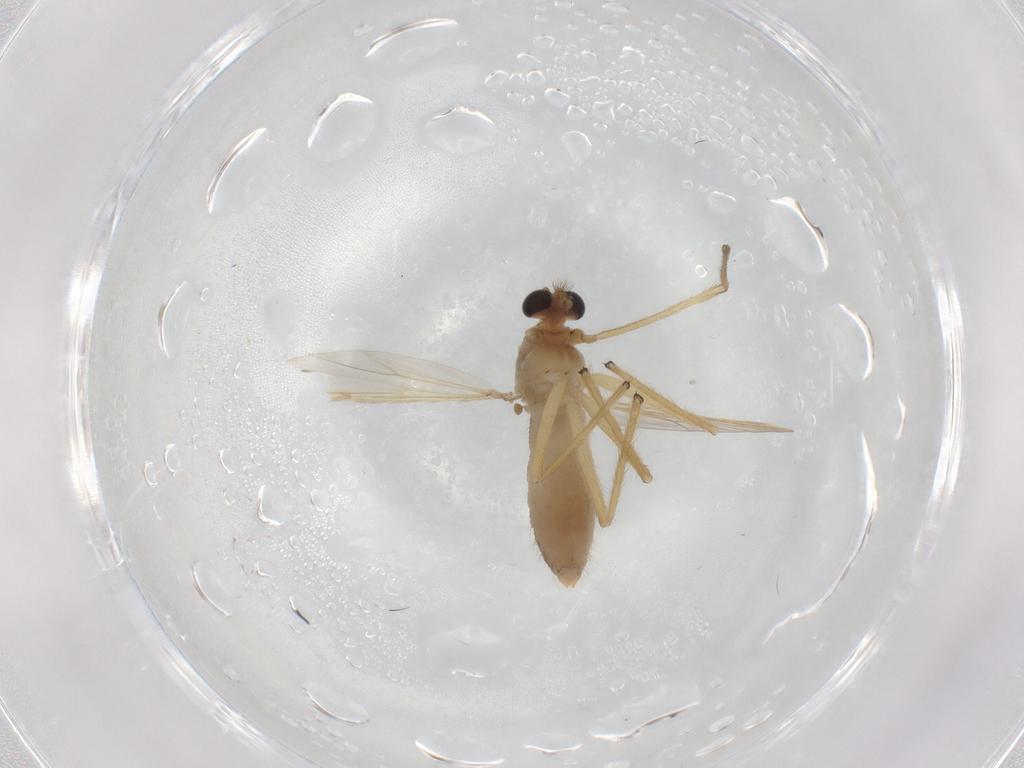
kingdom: Animalia
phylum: Arthropoda
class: Insecta
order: Diptera
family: Chironomidae
